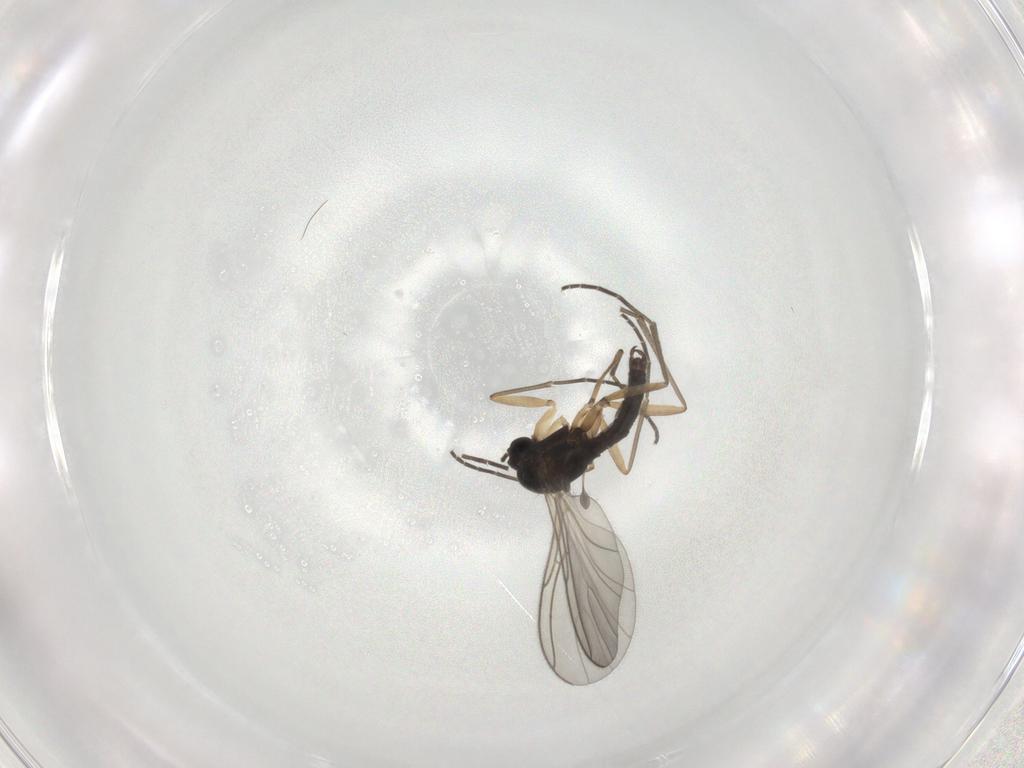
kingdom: Animalia
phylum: Arthropoda
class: Insecta
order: Diptera
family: Sciaridae
